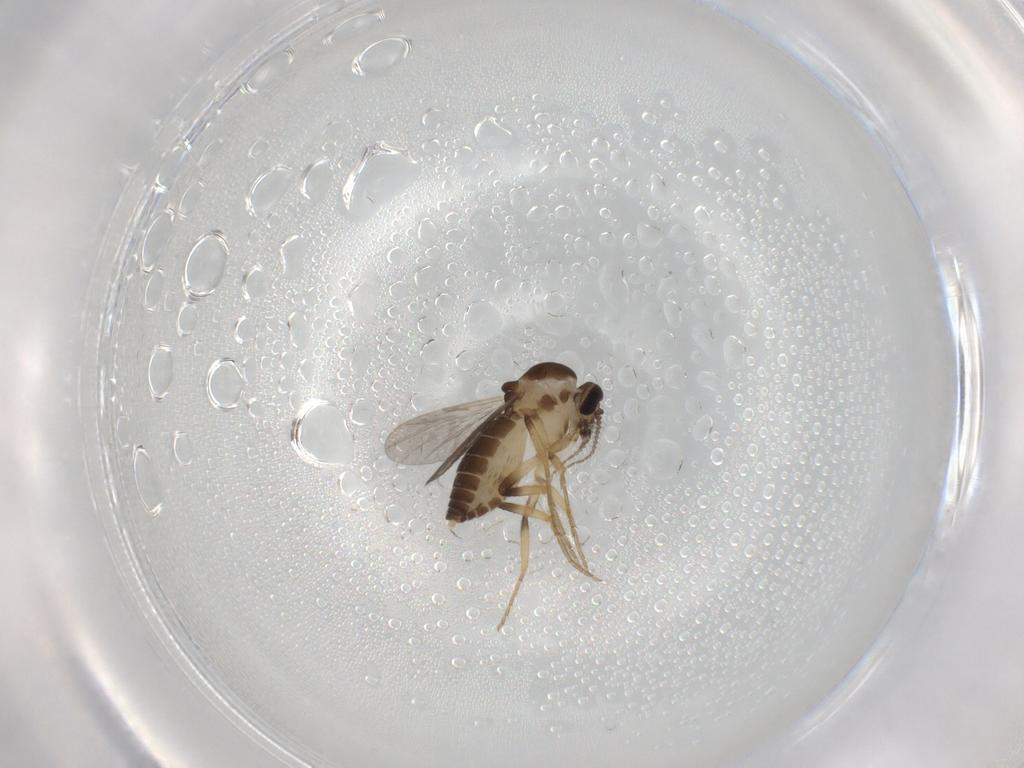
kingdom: Animalia
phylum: Arthropoda
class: Insecta
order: Diptera
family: Ceratopogonidae
